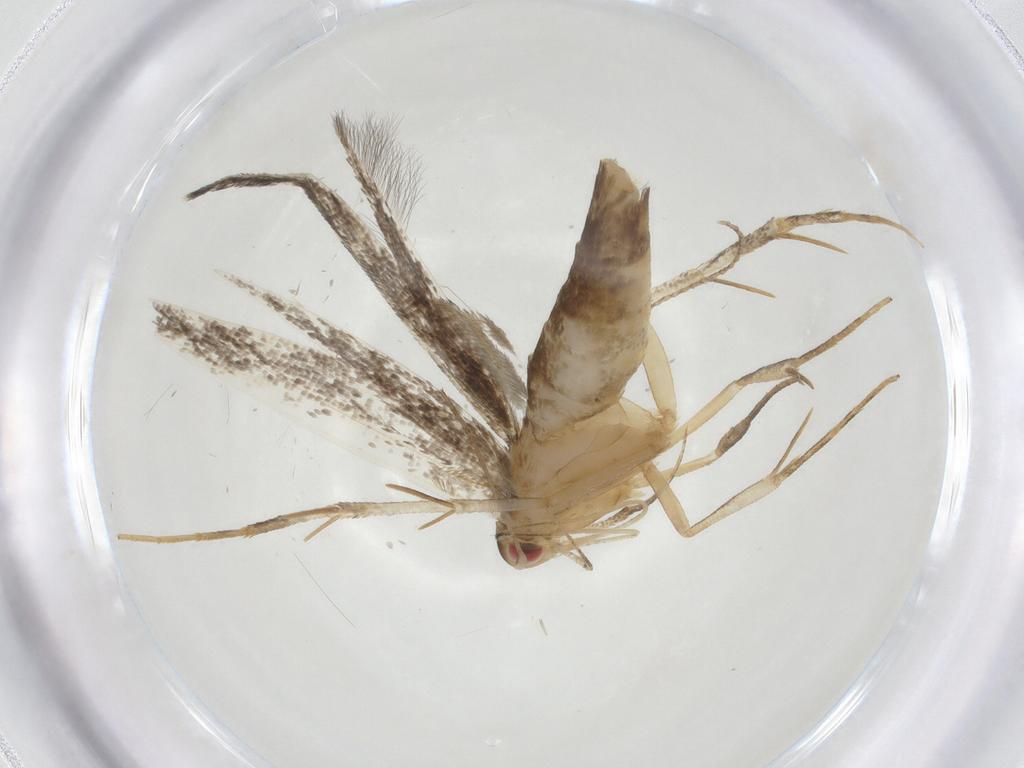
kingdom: Animalia
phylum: Arthropoda
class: Insecta
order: Lepidoptera
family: Cosmopterigidae
